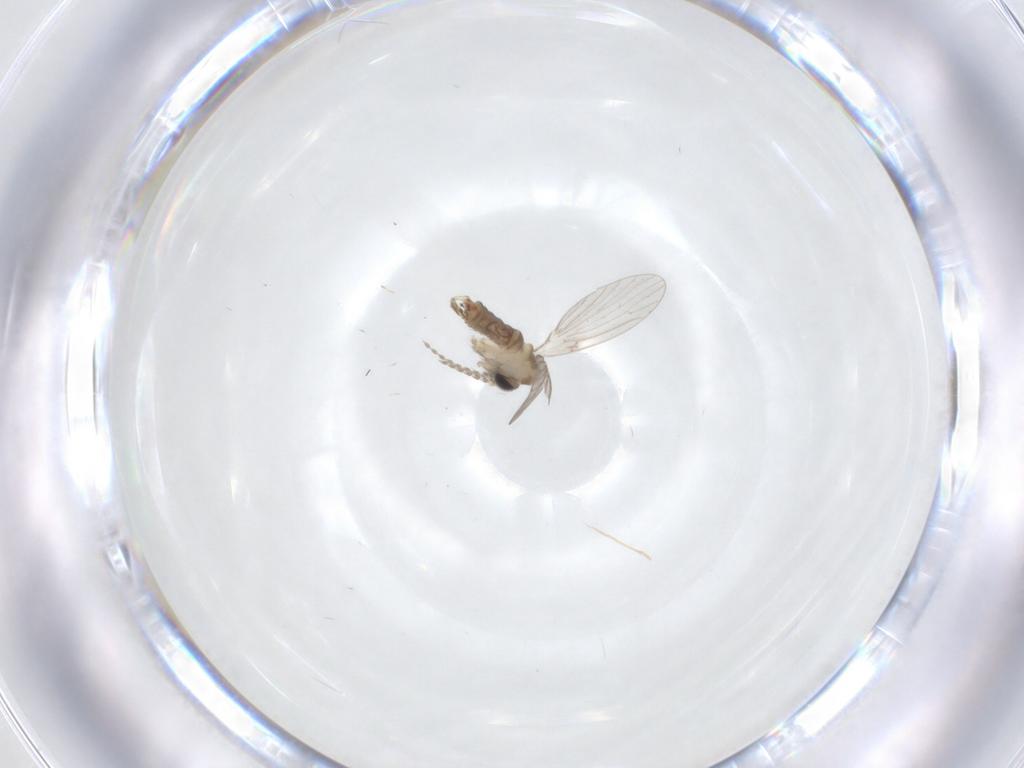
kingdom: Animalia
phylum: Arthropoda
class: Insecta
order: Diptera
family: Psychodidae
